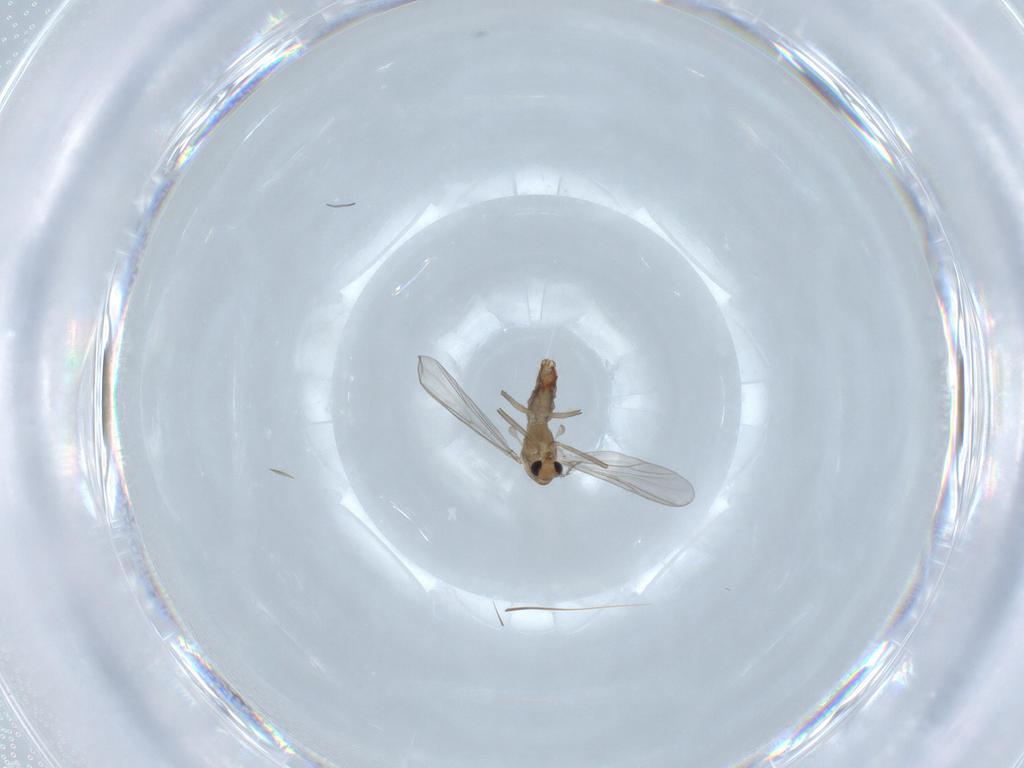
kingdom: Animalia
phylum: Arthropoda
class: Insecta
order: Diptera
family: Chironomidae
